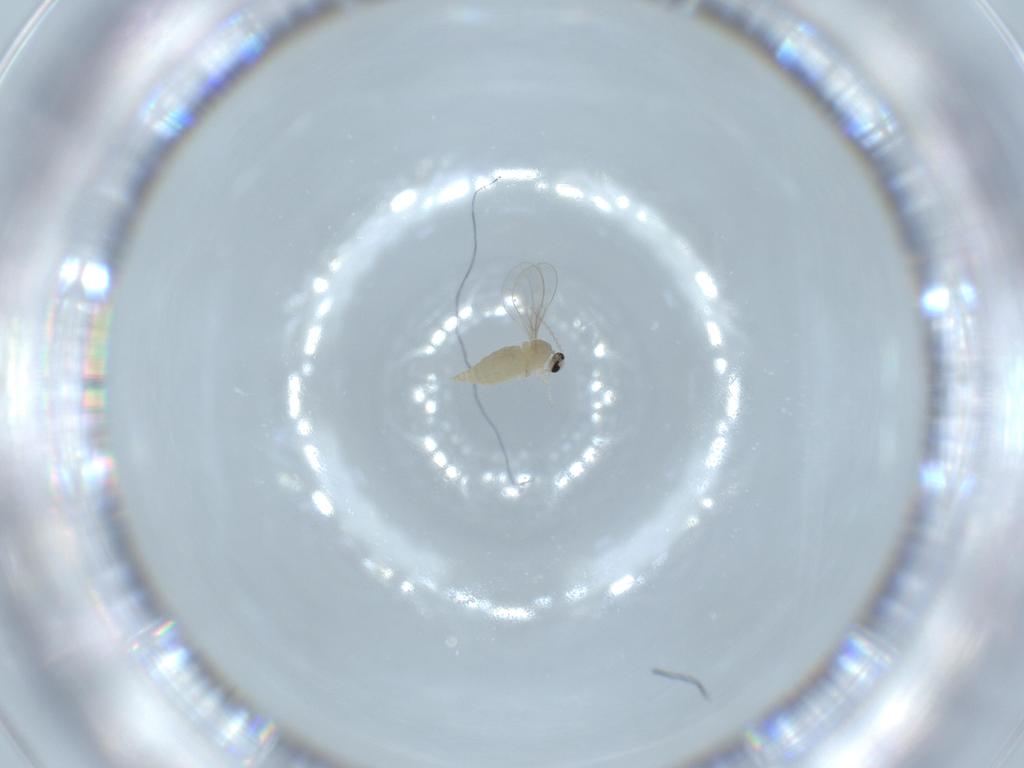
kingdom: Animalia
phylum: Arthropoda
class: Insecta
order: Diptera
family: Cecidomyiidae
